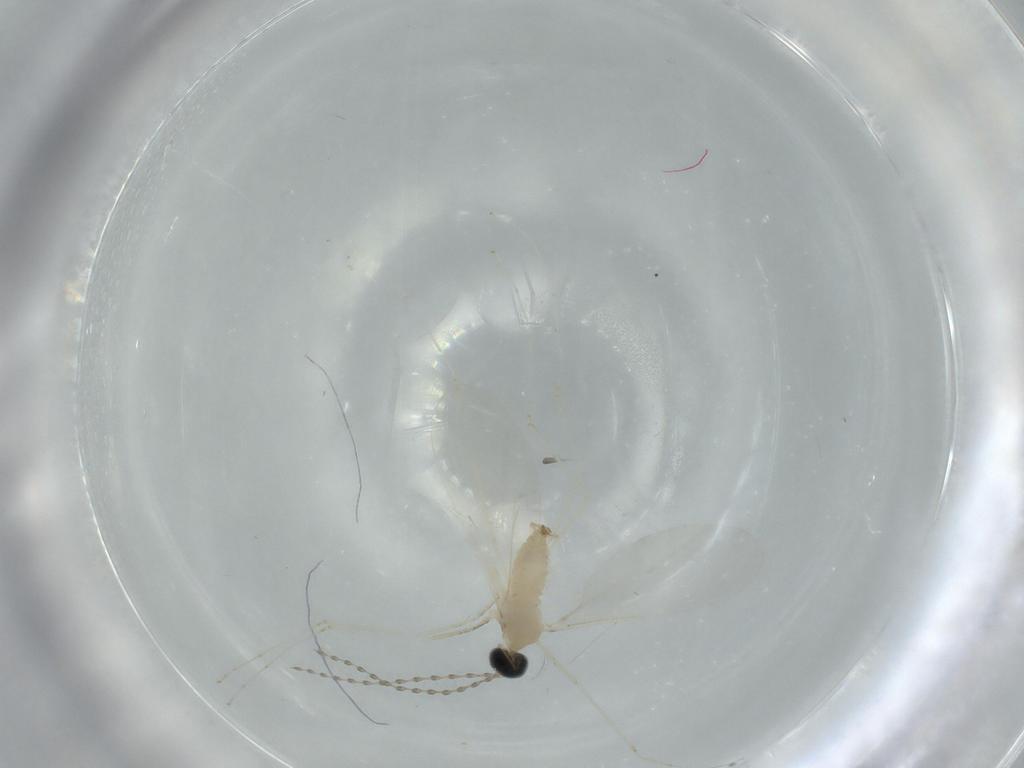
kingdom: Animalia
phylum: Arthropoda
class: Insecta
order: Diptera
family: Cecidomyiidae
